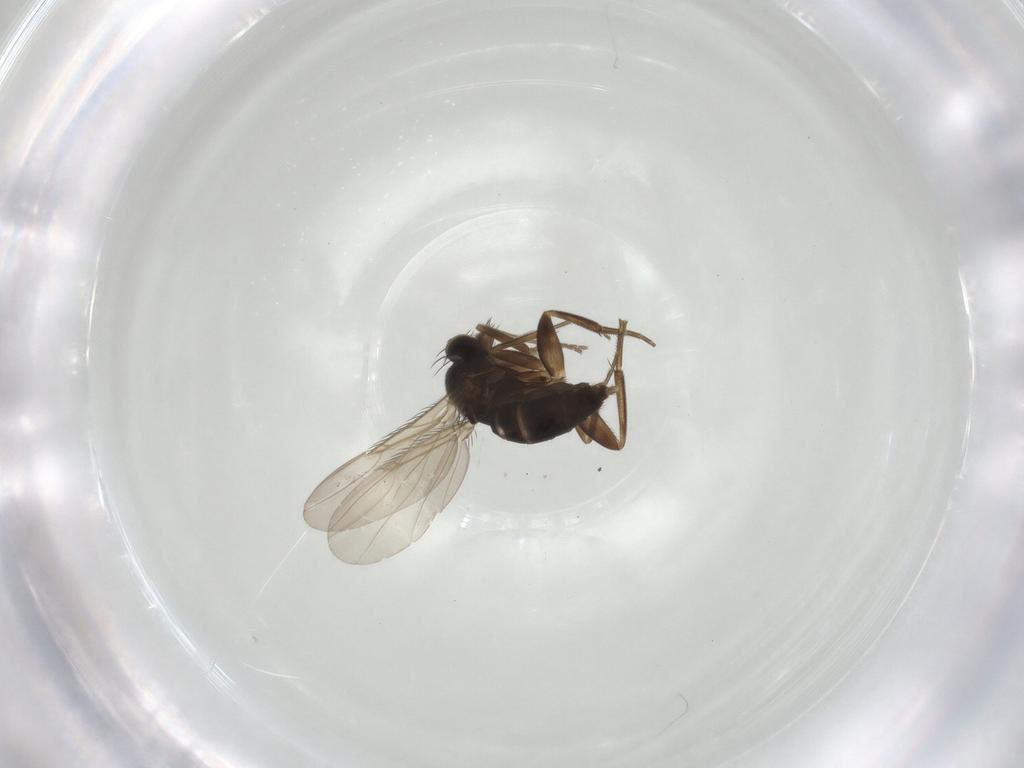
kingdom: Animalia
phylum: Arthropoda
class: Insecta
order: Diptera
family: Phoridae
